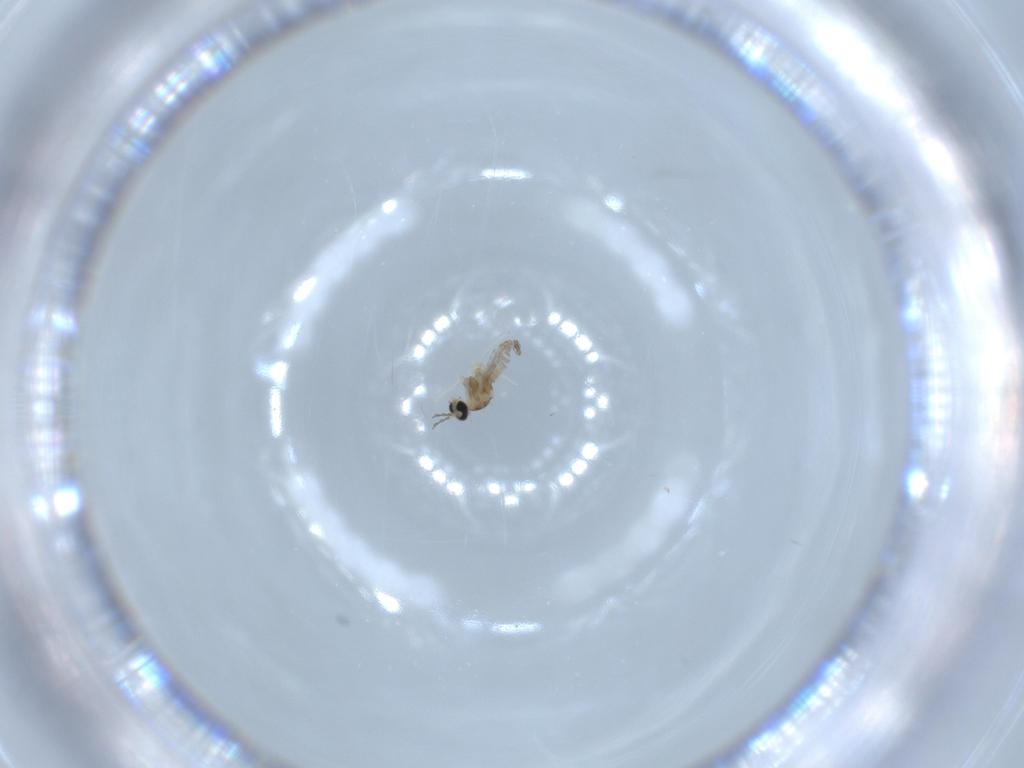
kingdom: Animalia
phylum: Arthropoda
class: Insecta
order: Diptera
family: Cecidomyiidae
